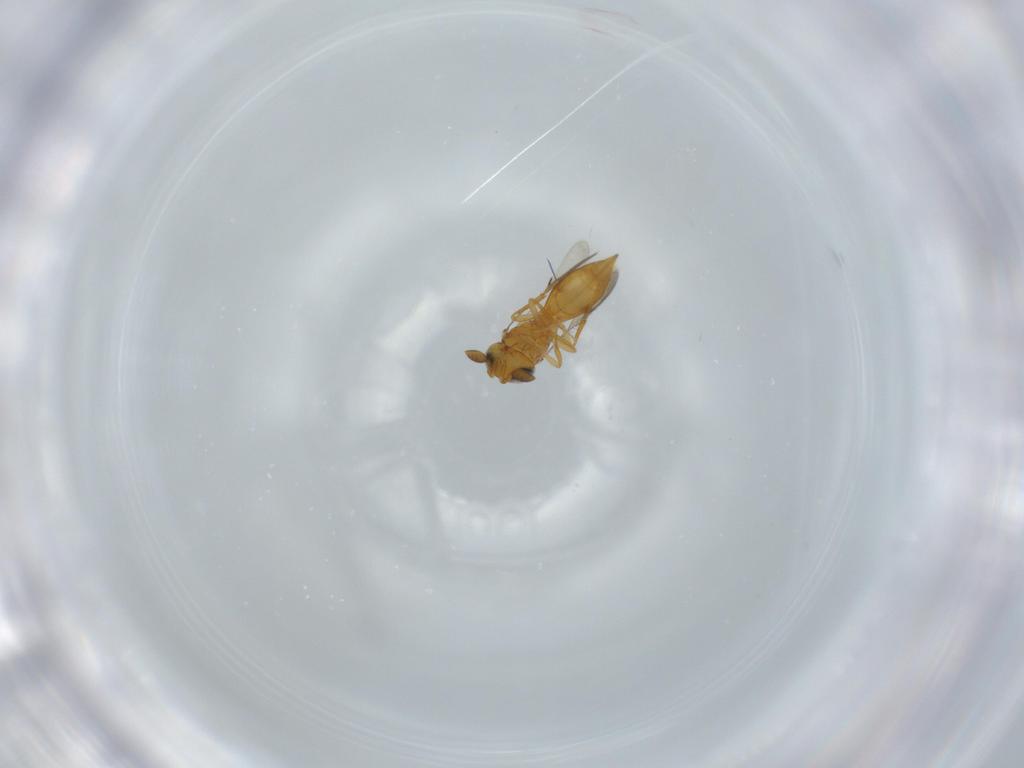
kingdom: Animalia
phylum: Arthropoda
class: Insecta
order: Hymenoptera
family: Scelionidae
